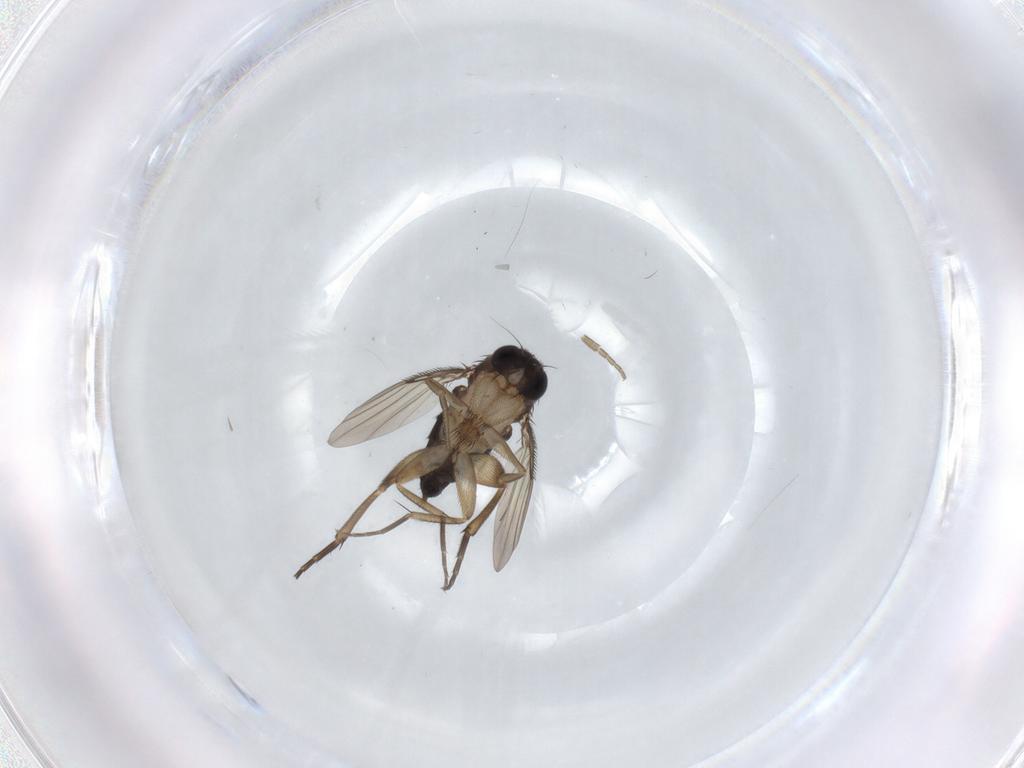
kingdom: Animalia
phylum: Arthropoda
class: Insecta
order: Diptera
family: Phoridae
